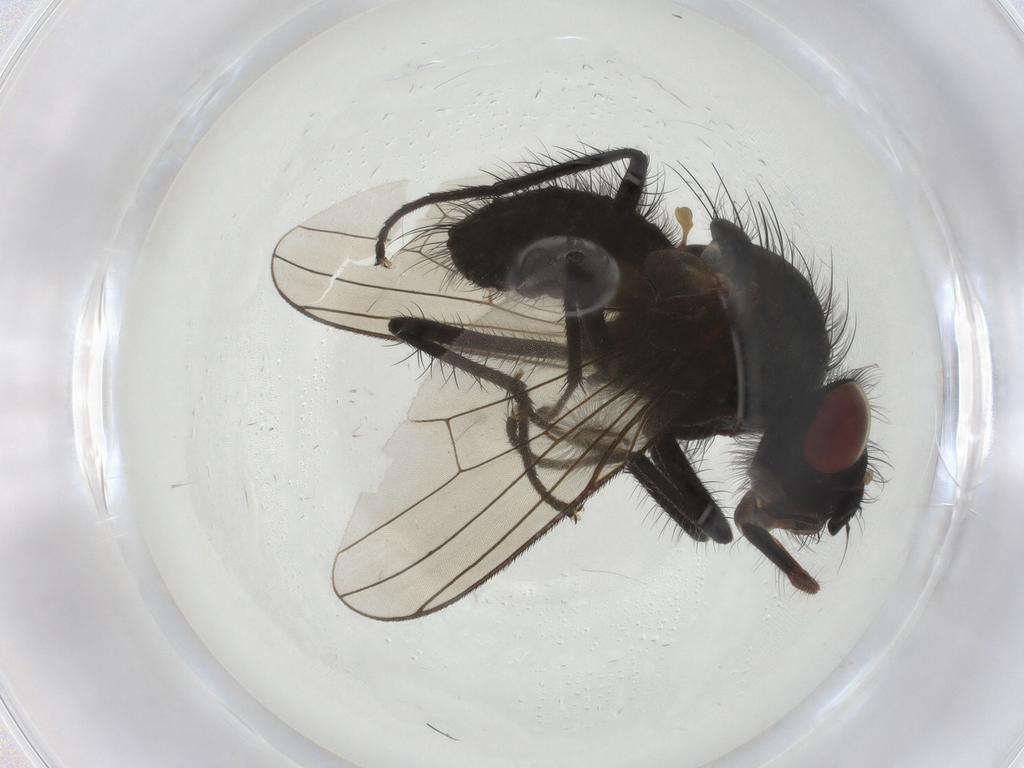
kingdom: Animalia
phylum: Arthropoda
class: Insecta
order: Diptera
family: Anthomyiidae
